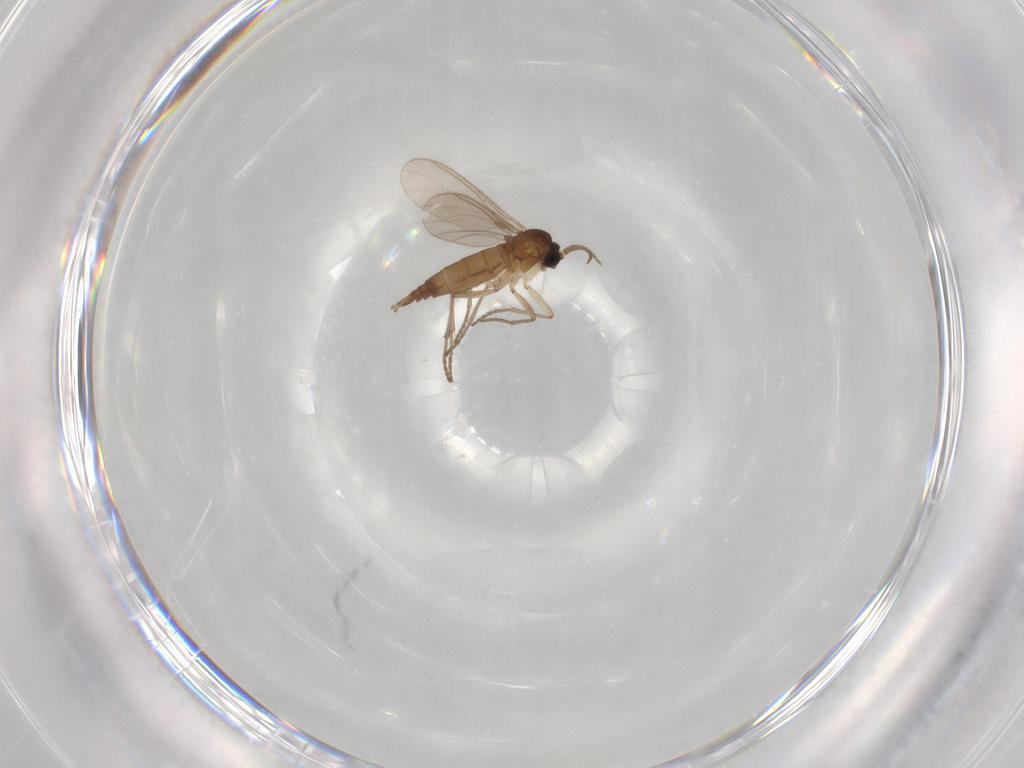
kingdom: Animalia
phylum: Arthropoda
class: Insecta
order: Diptera
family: Sciaridae
